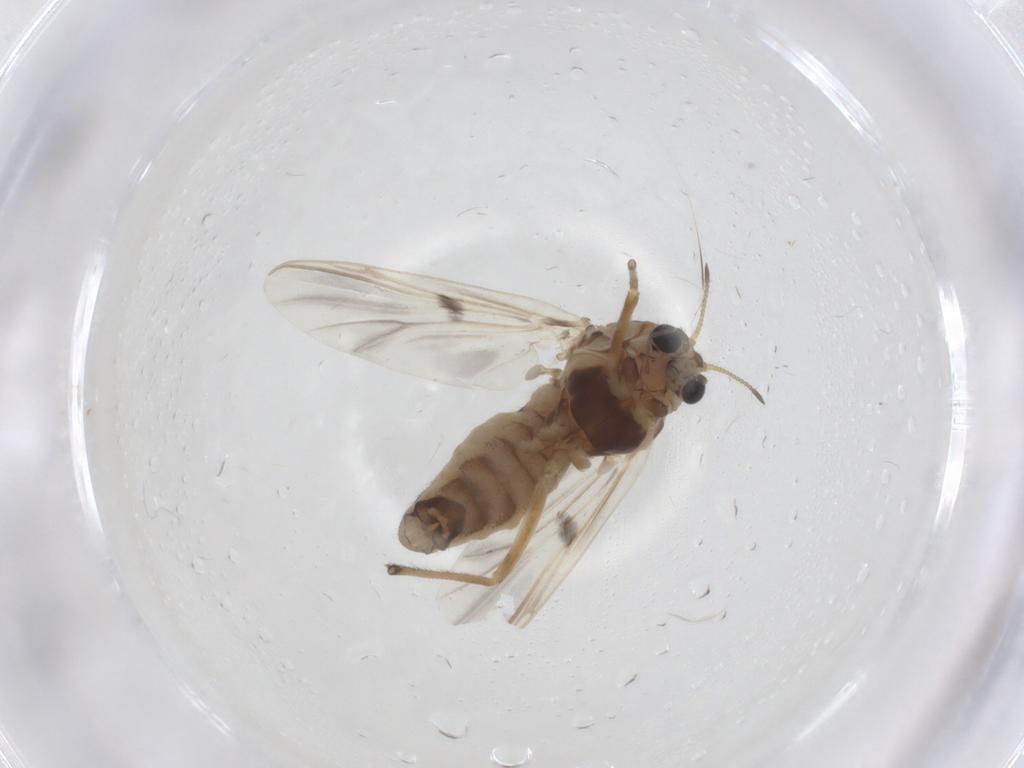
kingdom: Animalia
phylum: Arthropoda
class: Insecta
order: Diptera
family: Chironomidae
